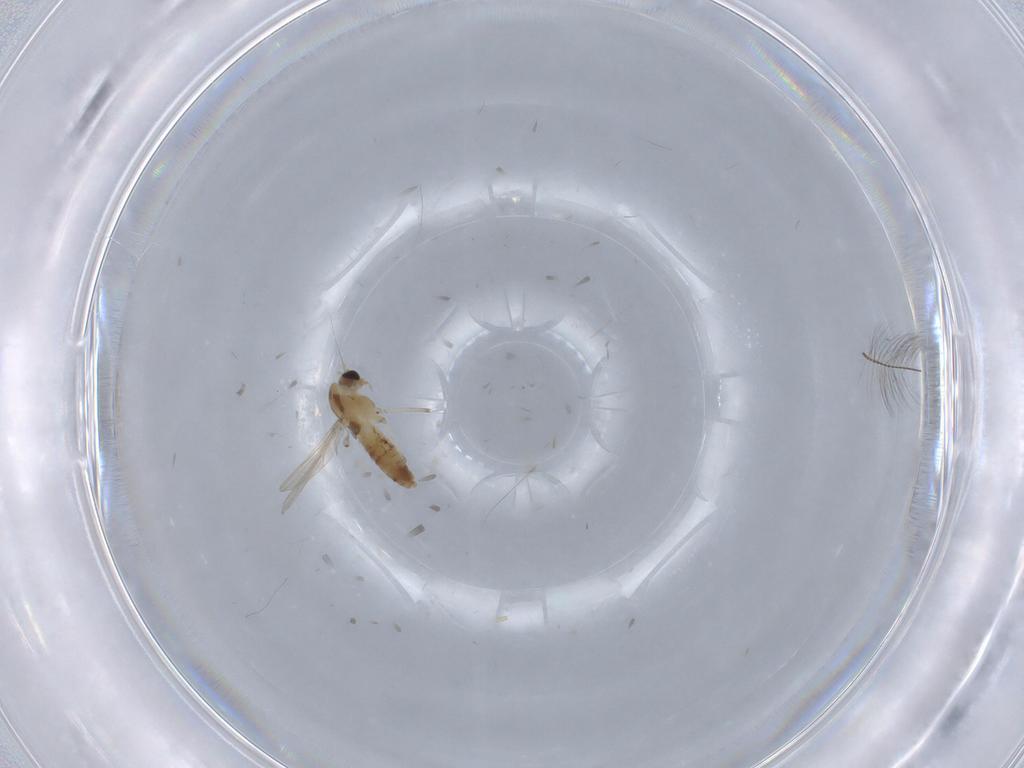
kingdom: Animalia
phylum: Arthropoda
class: Insecta
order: Diptera
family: Chironomidae
